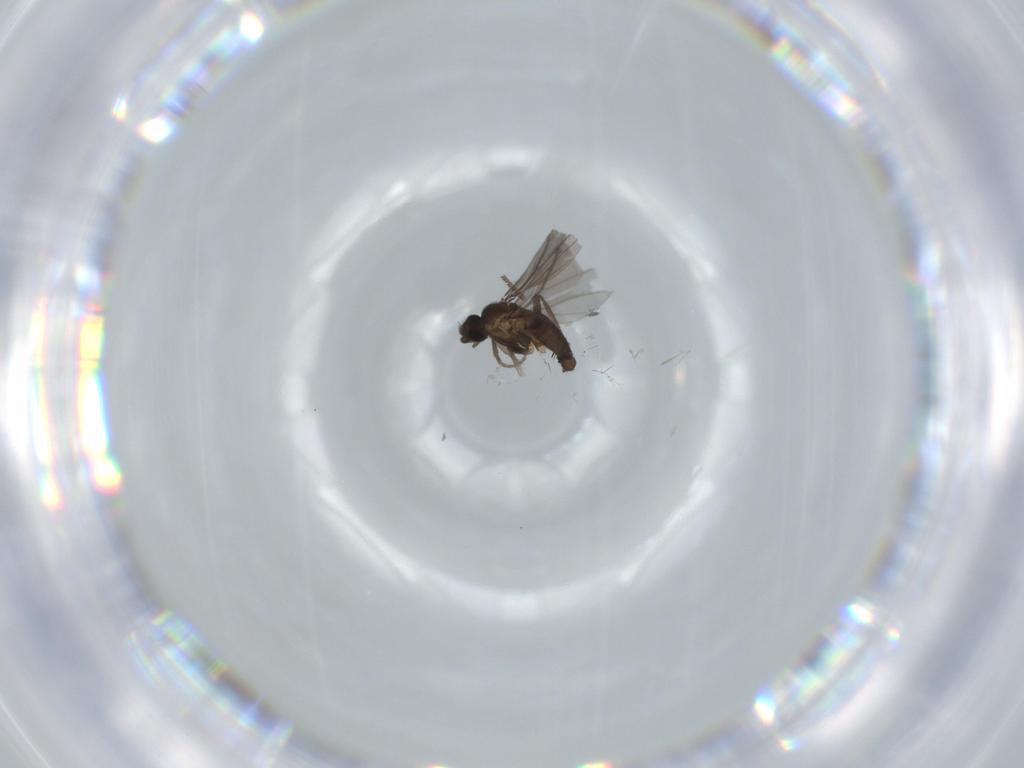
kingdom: Animalia
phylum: Arthropoda
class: Insecta
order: Diptera
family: Phoridae
